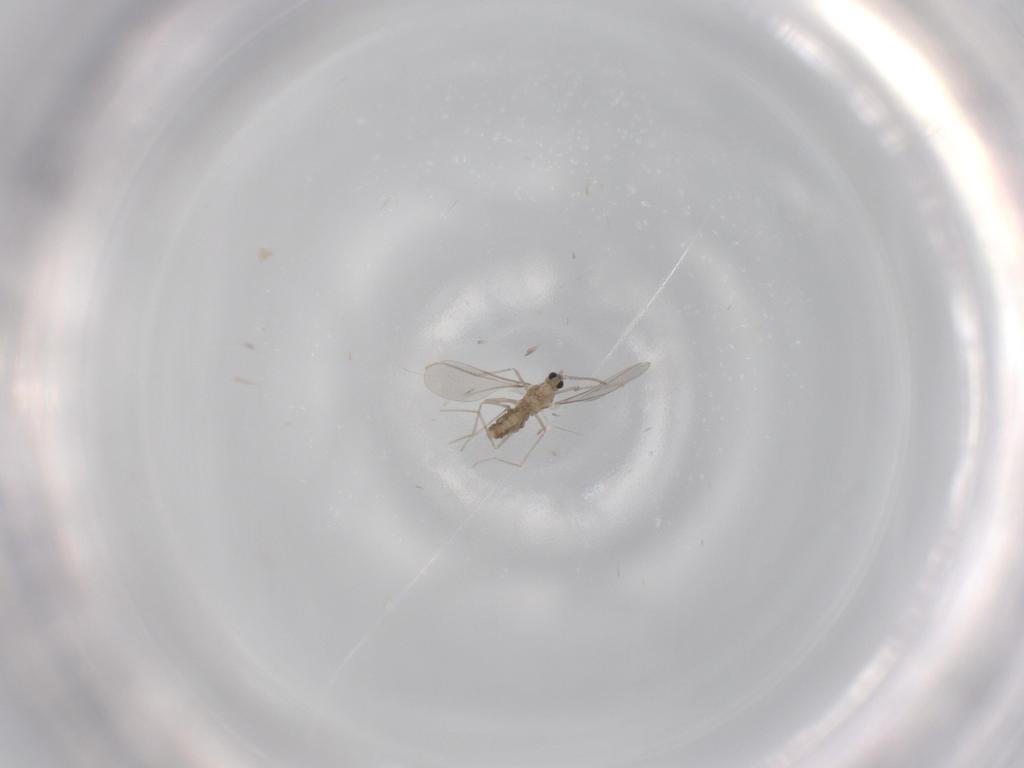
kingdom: Animalia
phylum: Arthropoda
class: Insecta
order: Diptera
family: Cecidomyiidae
